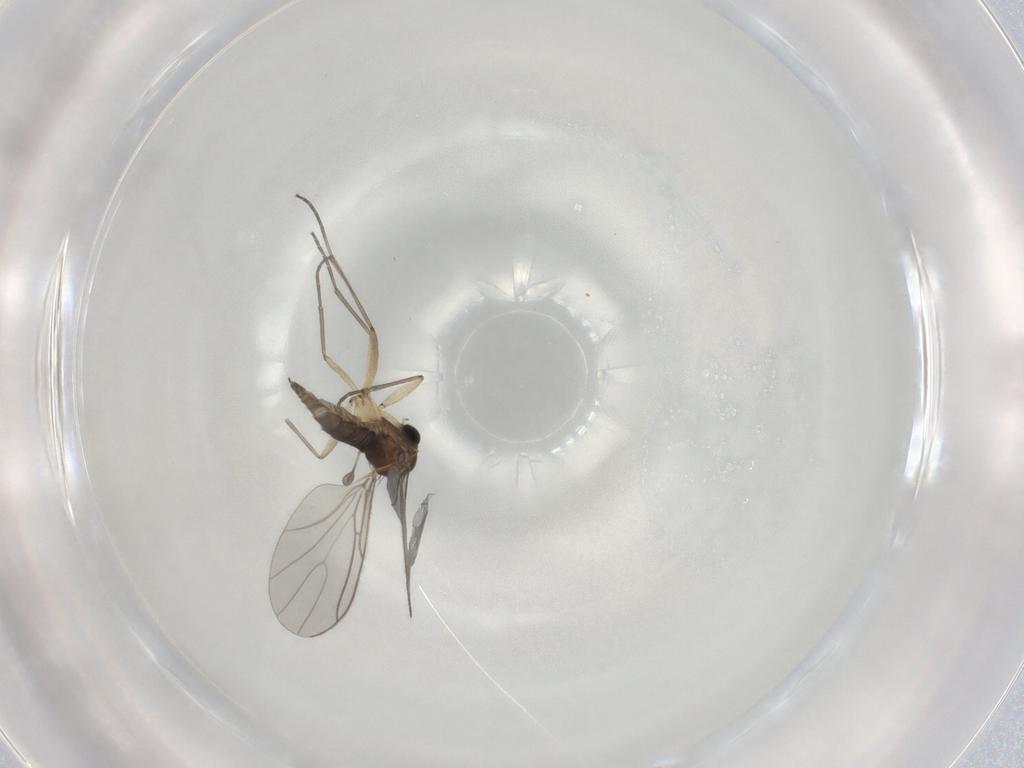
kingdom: Animalia
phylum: Arthropoda
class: Insecta
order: Diptera
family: Sciaridae
